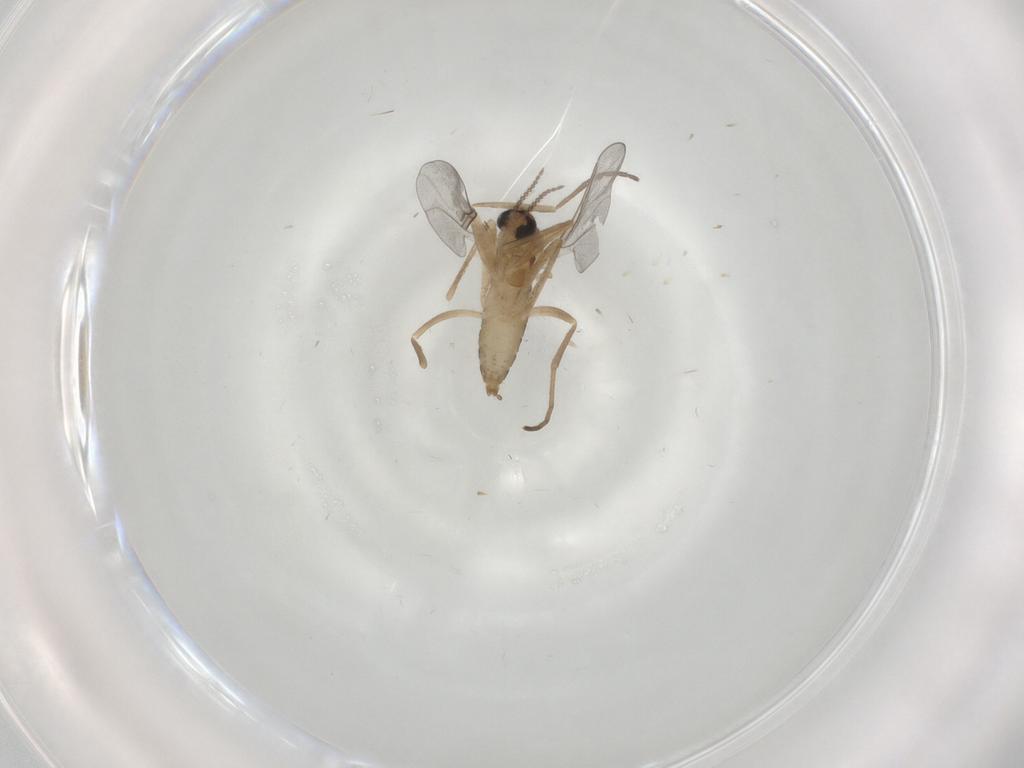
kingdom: Animalia
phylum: Arthropoda
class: Insecta
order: Diptera
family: Cecidomyiidae
